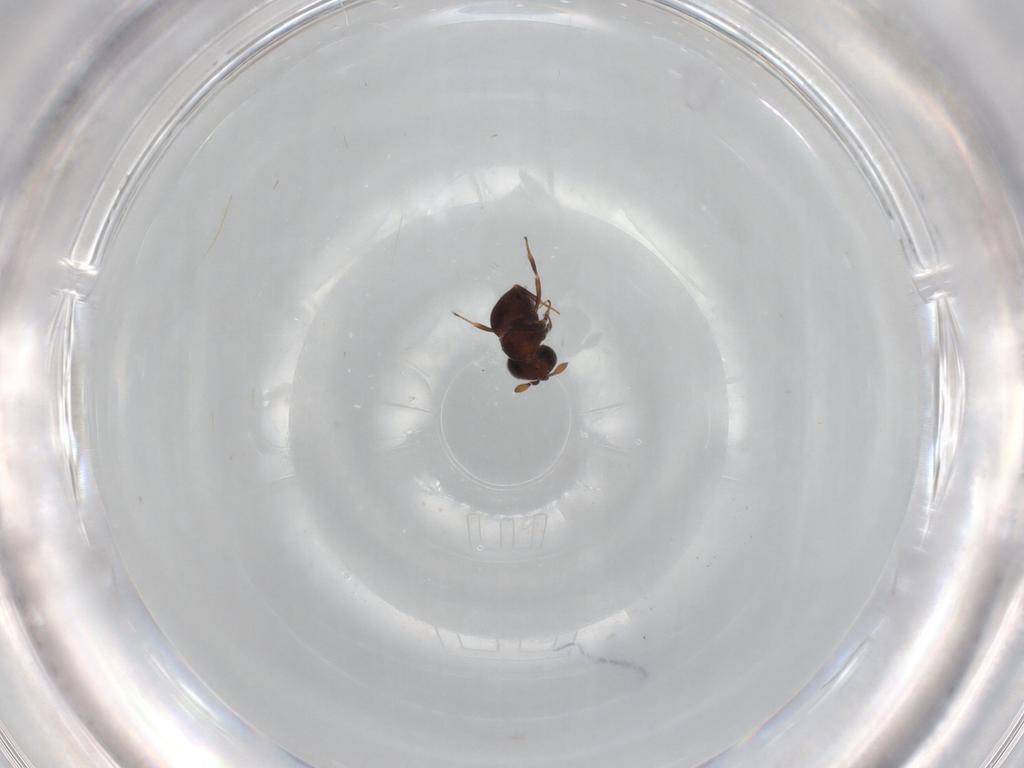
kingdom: Animalia
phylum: Arthropoda
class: Insecta
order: Hymenoptera
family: Scelionidae
